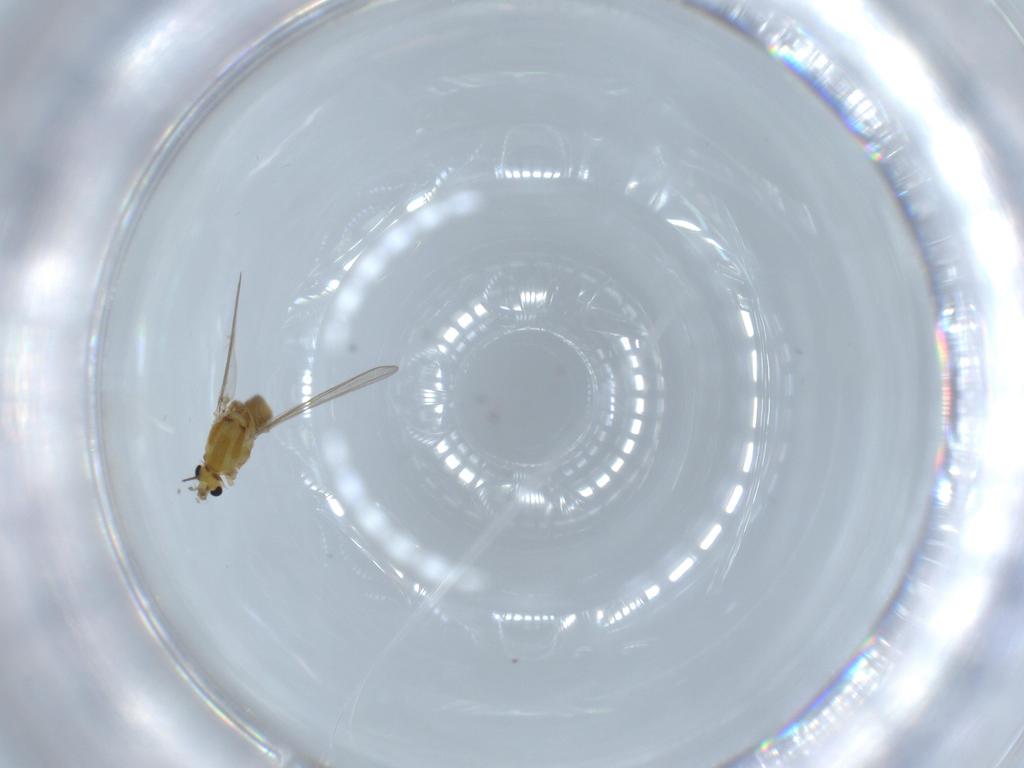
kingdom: Animalia
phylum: Arthropoda
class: Insecta
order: Diptera
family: Chironomidae
